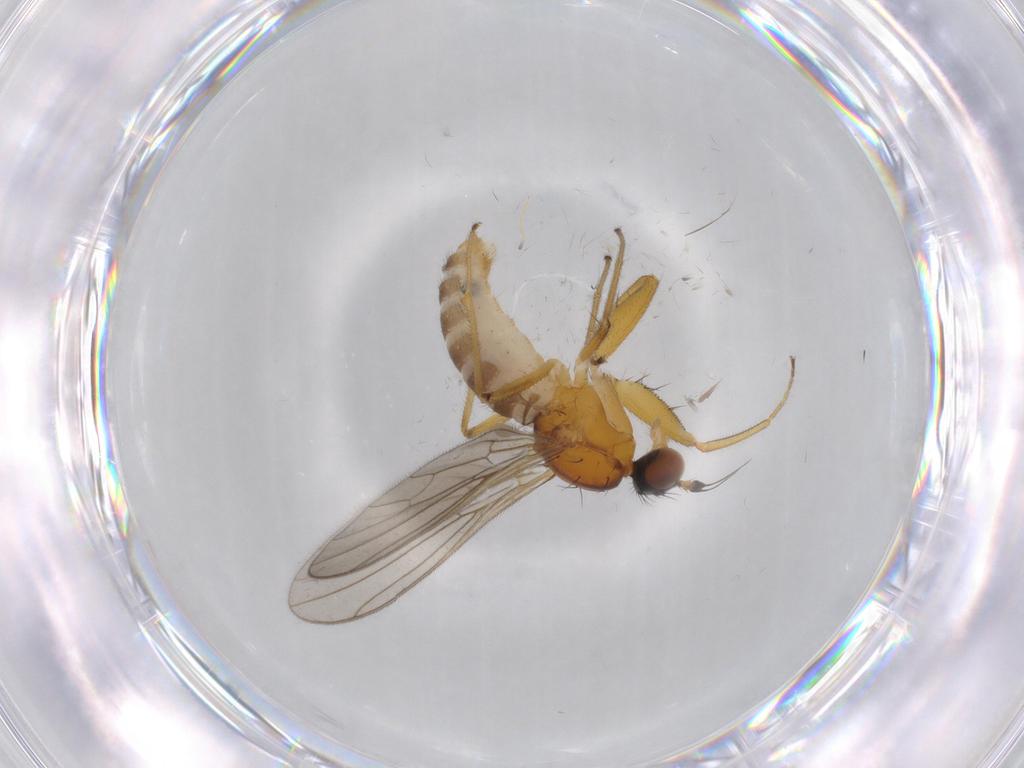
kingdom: Animalia
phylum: Arthropoda
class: Insecta
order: Diptera
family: Empididae
